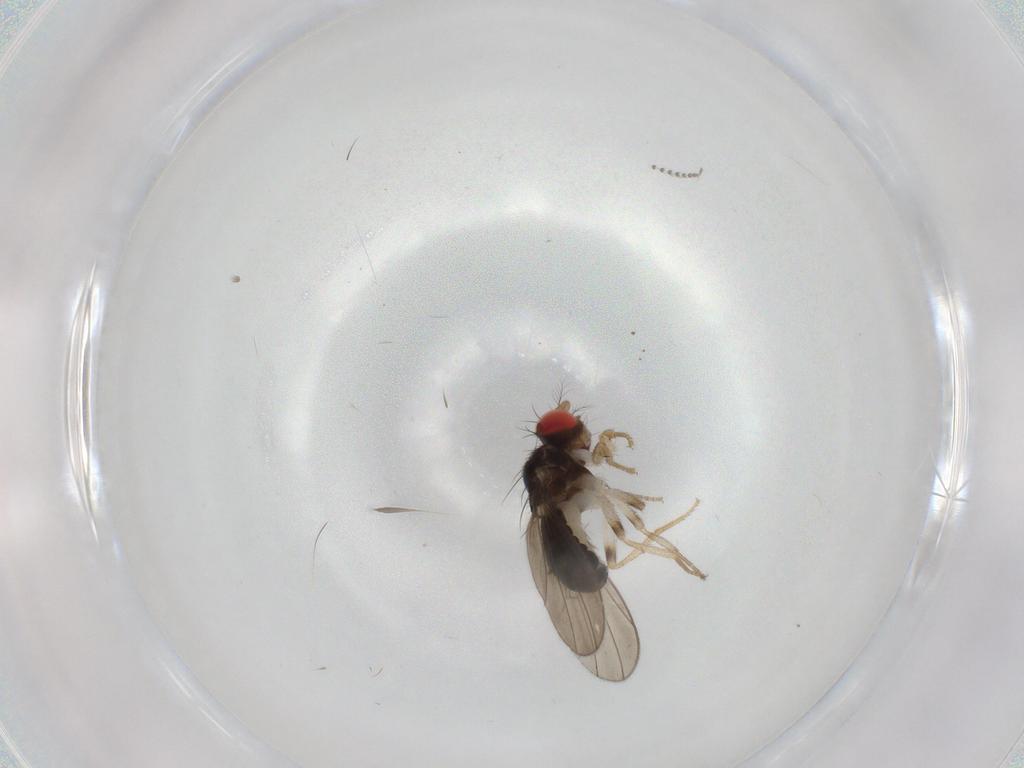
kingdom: Animalia
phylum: Arthropoda
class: Insecta
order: Diptera
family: Drosophilidae
